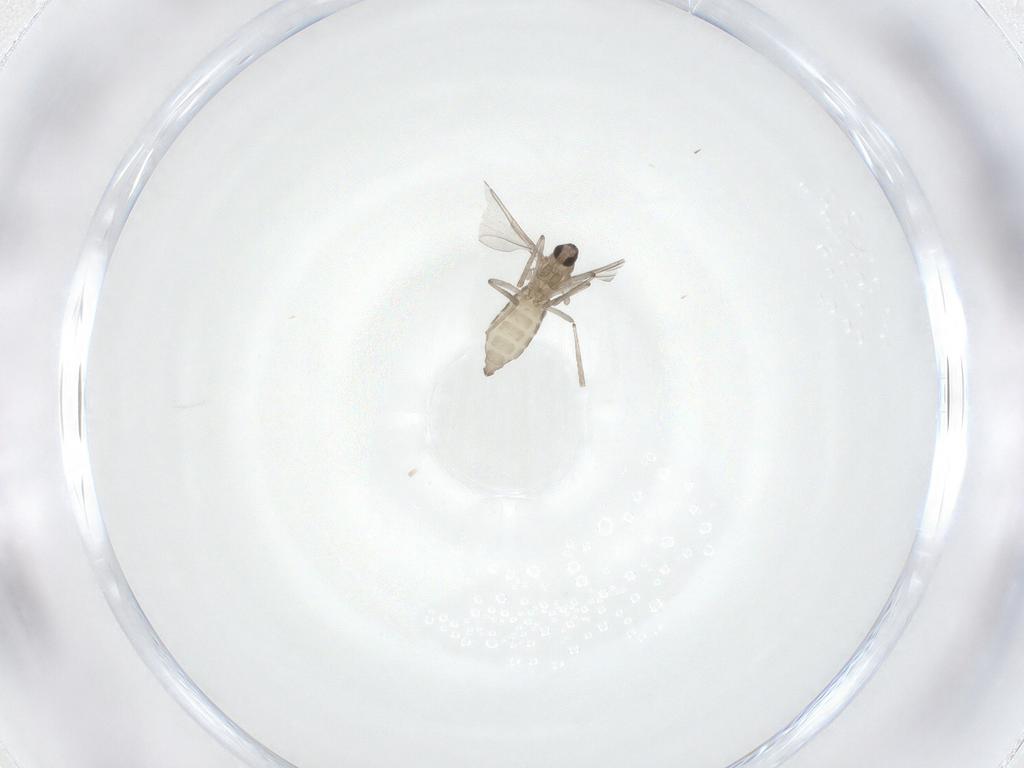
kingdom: Animalia
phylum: Arthropoda
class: Insecta
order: Diptera
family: Cecidomyiidae
